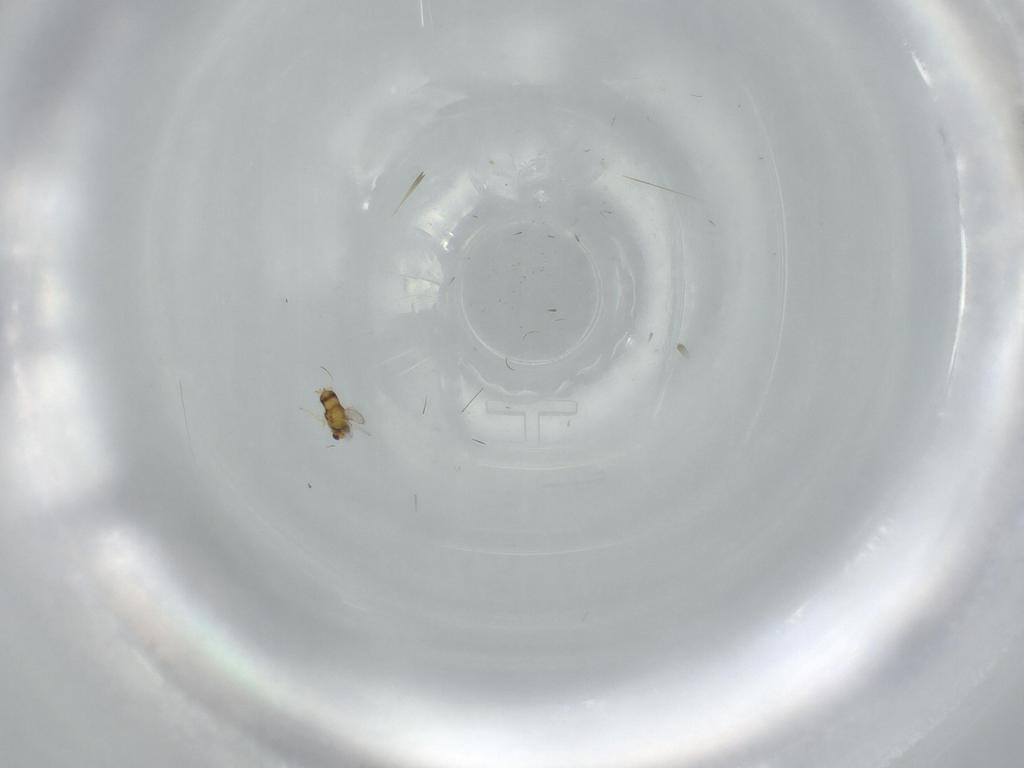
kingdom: Animalia
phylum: Arthropoda
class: Insecta
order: Hymenoptera
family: Aphelinidae
